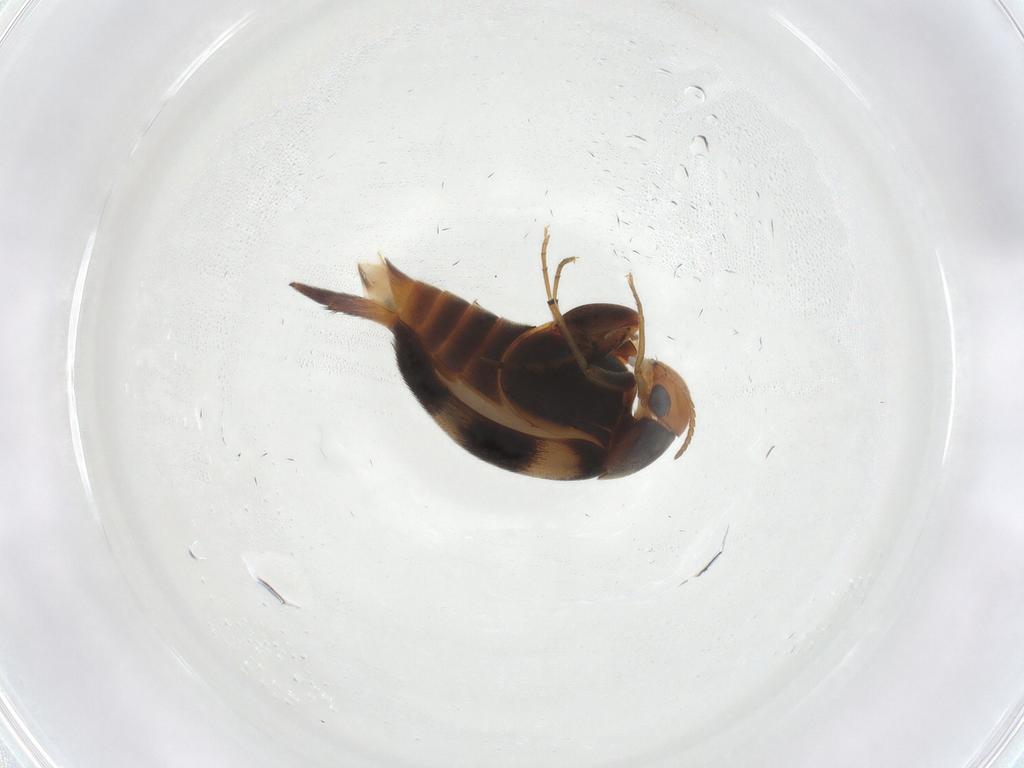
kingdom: Animalia
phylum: Arthropoda
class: Insecta
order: Coleoptera
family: Mordellidae
